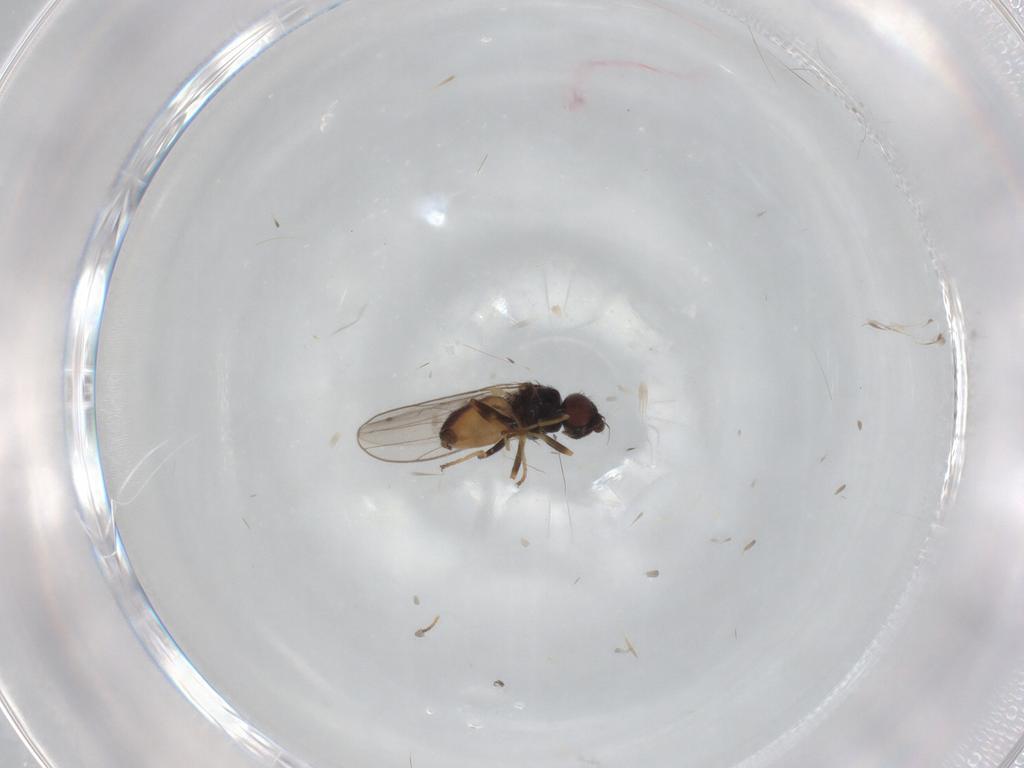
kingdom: Animalia
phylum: Arthropoda
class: Insecta
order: Diptera
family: Chloropidae
